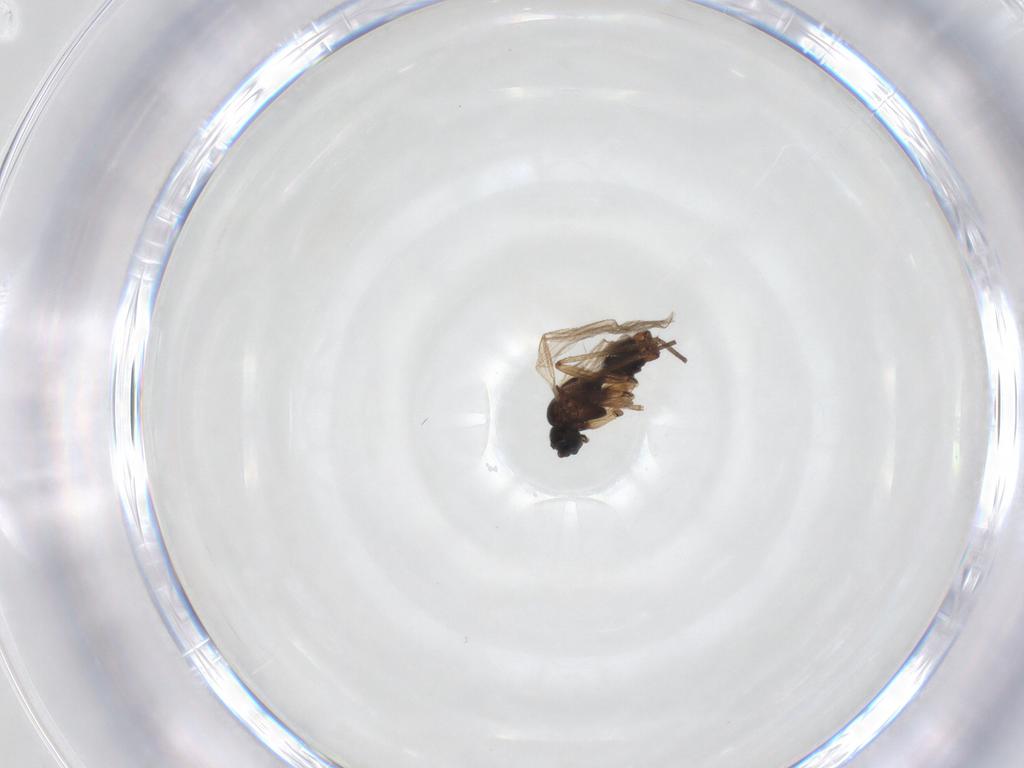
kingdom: Animalia
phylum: Arthropoda
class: Insecta
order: Diptera
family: Sciaridae
